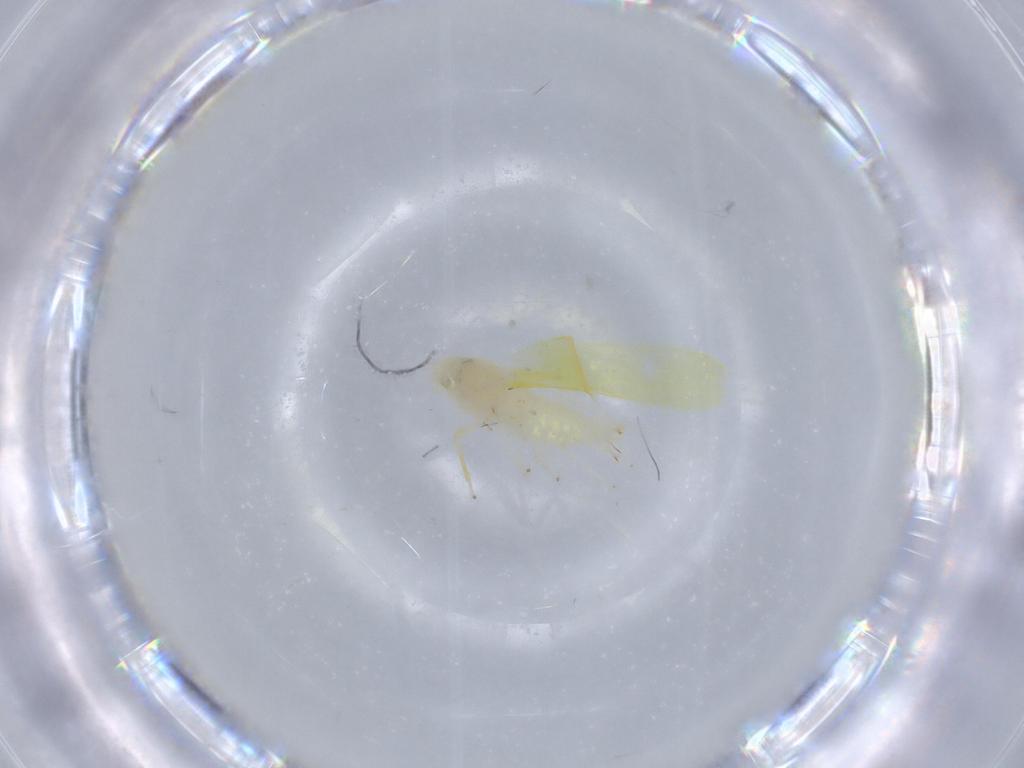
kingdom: Animalia
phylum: Arthropoda
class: Insecta
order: Hemiptera
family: Cicadellidae
